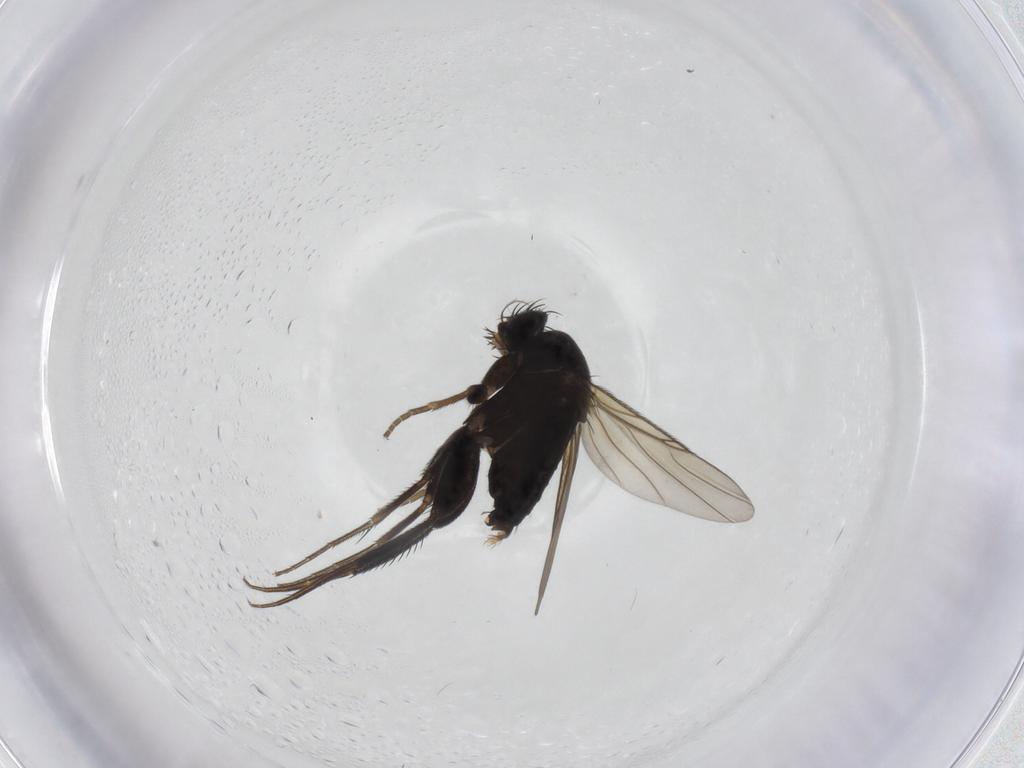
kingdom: Animalia
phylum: Arthropoda
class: Insecta
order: Diptera
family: Phoridae
